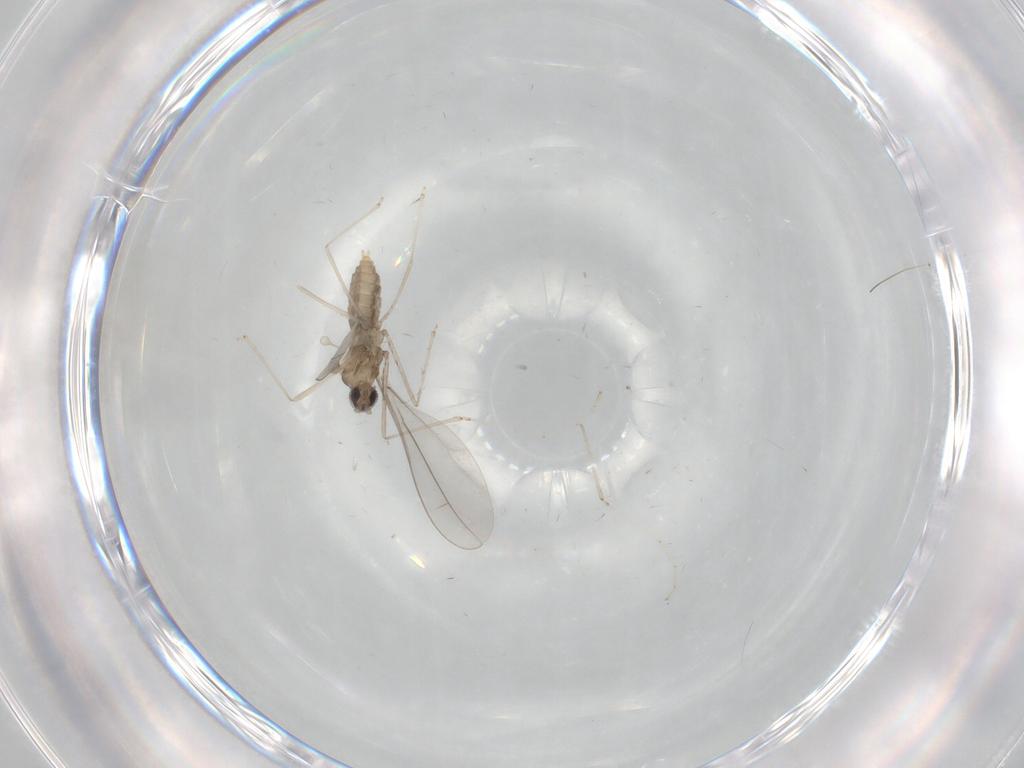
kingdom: Animalia
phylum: Arthropoda
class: Insecta
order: Diptera
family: Cecidomyiidae
